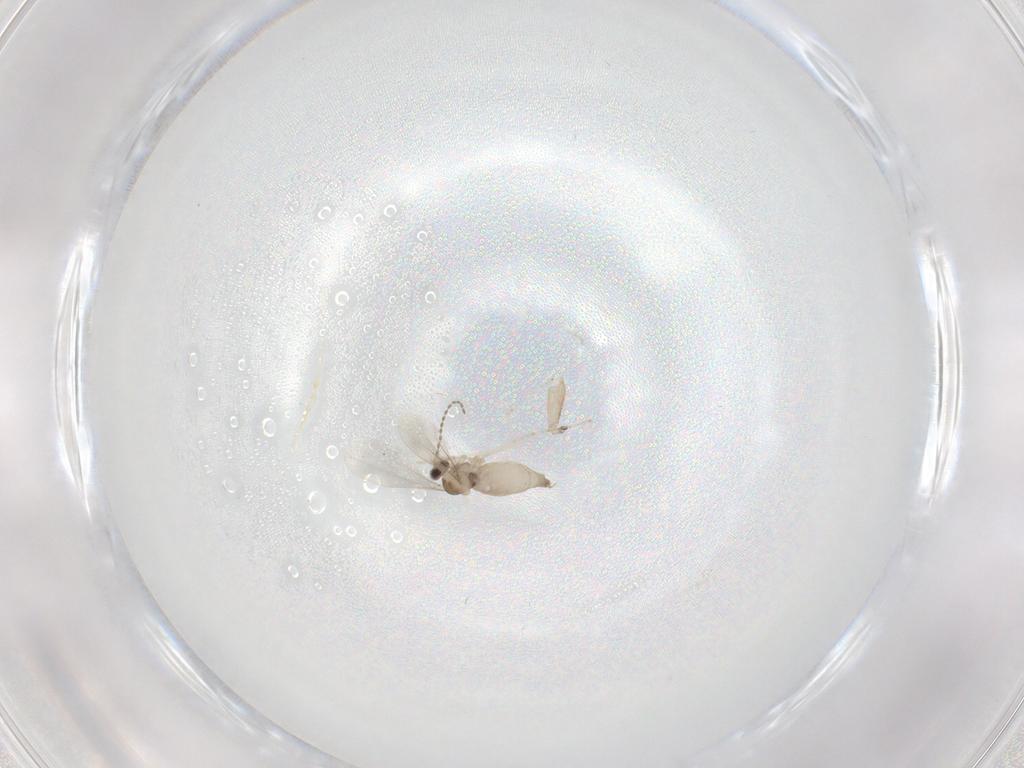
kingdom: Animalia
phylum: Arthropoda
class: Insecta
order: Diptera
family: Cecidomyiidae
